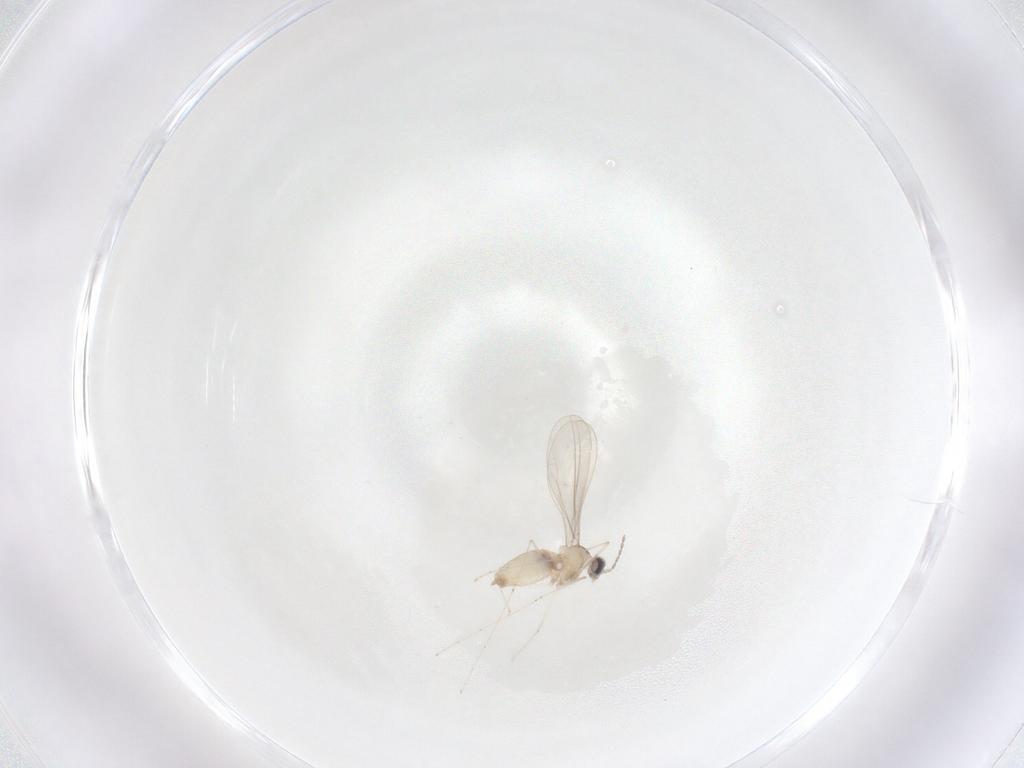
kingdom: Animalia
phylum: Arthropoda
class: Insecta
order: Diptera
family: Cecidomyiidae
